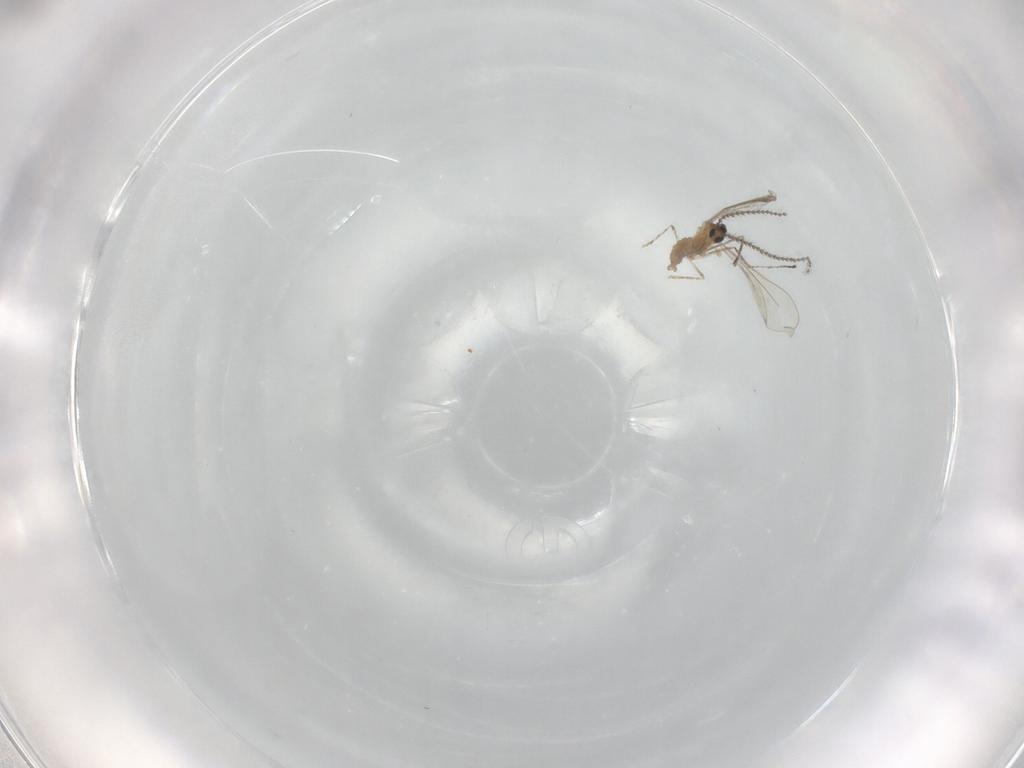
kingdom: Animalia
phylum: Arthropoda
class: Insecta
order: Diptera
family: Cecidomyiidae
